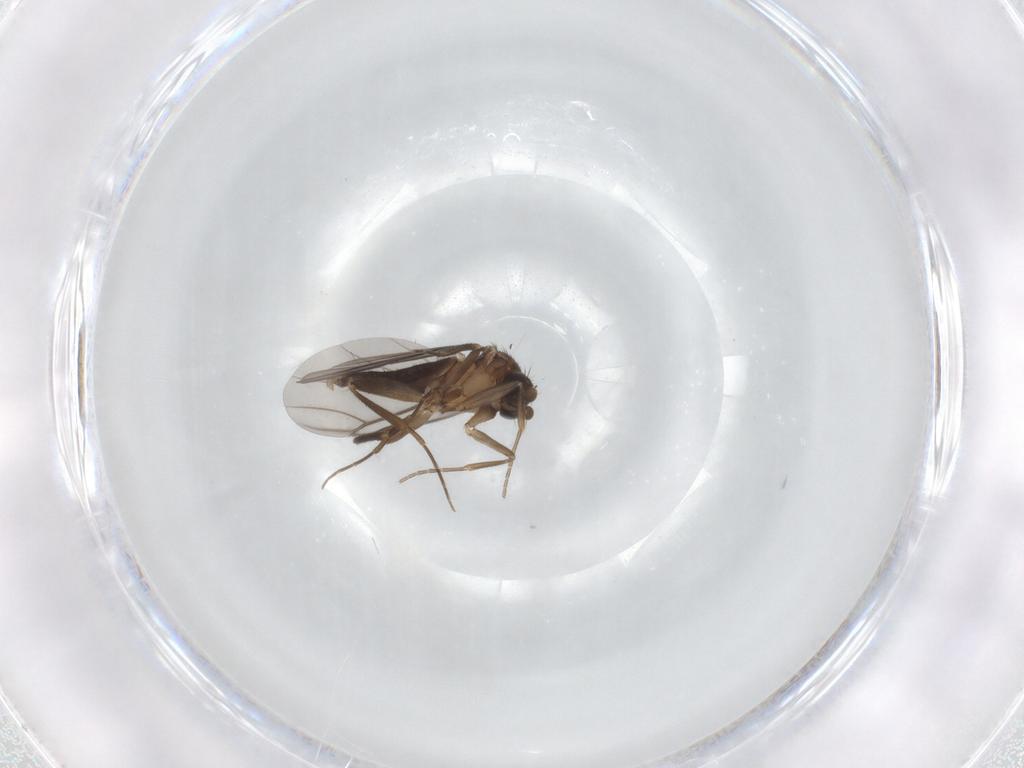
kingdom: Animalia
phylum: Arthropoda
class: Insecta
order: Diptera
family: Phoridae
